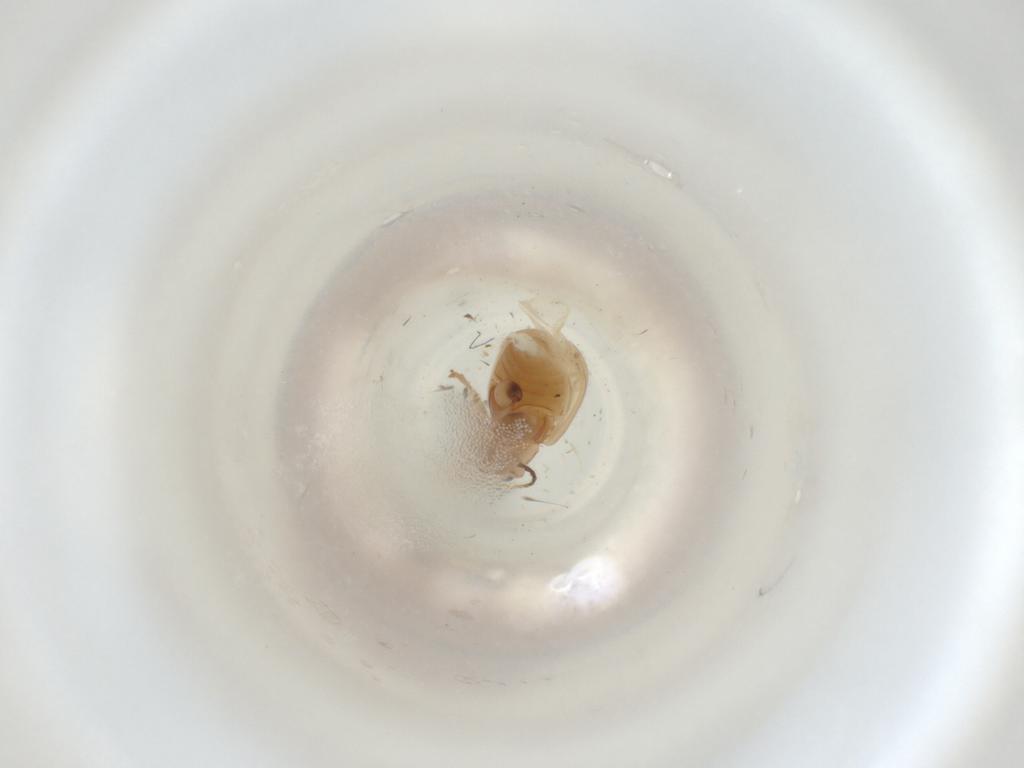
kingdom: Animalia
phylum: Arthropoda
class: Insecta
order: Coleoptera
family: Chrysomelidae
